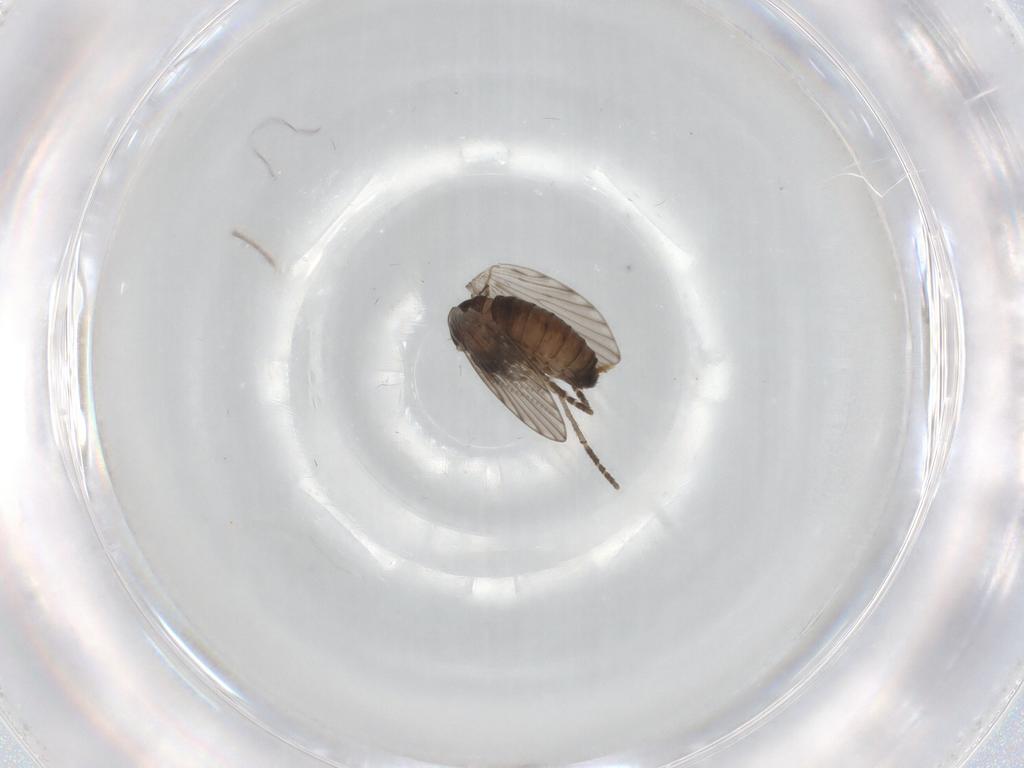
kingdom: Animalia
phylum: Arthropoda
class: Insecta
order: Diptera
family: Psychodidae
